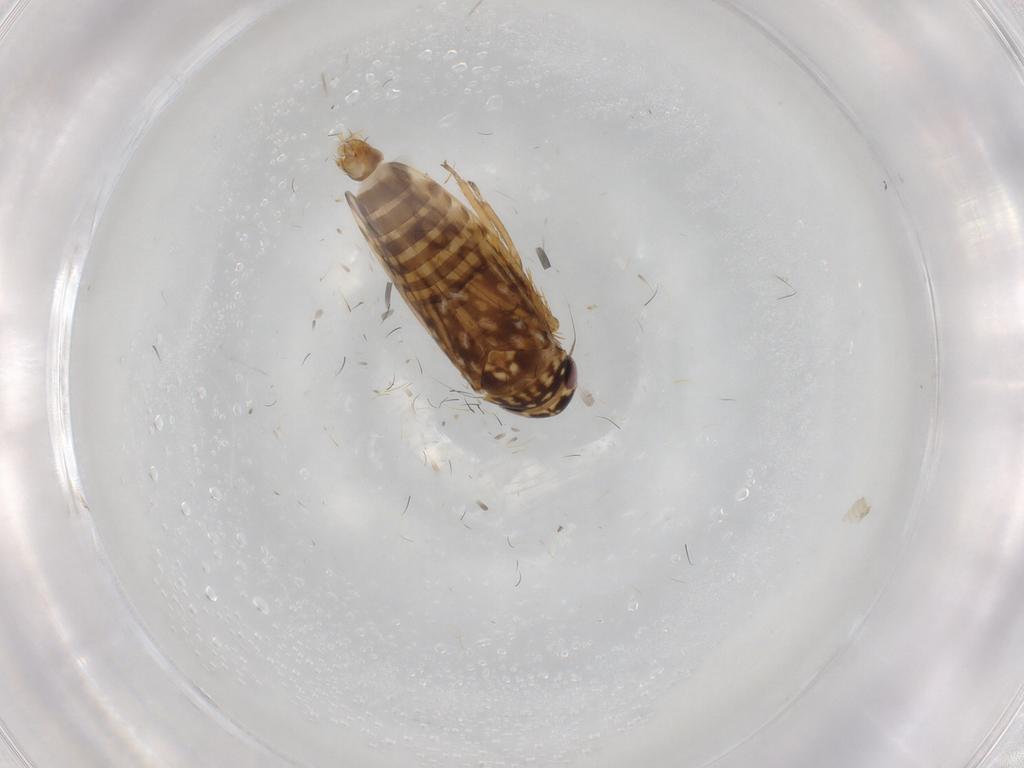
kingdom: Animalia
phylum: Arthropoda
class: Insecta
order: Hemiptera
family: Cicadellidae
